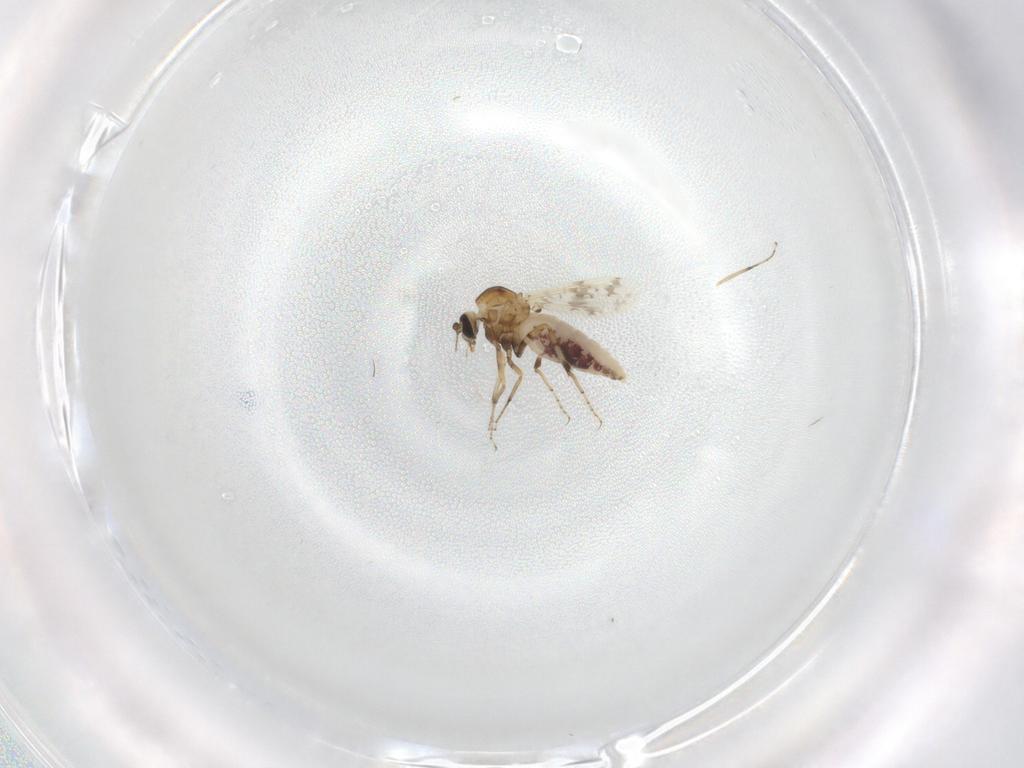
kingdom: Animalia
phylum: Arthropoda
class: Insecta
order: Diptera
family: Ceratopogonidae
